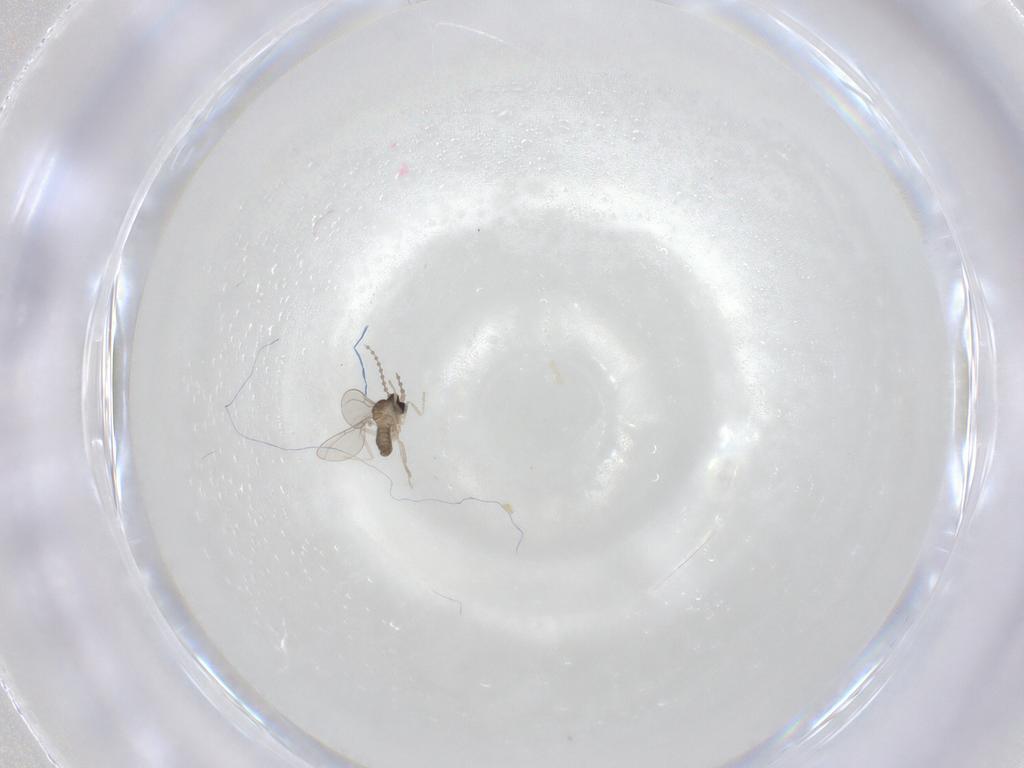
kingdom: Animalia
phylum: Arthropoda
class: Insecta
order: Diptera
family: Cecidomyiidae
